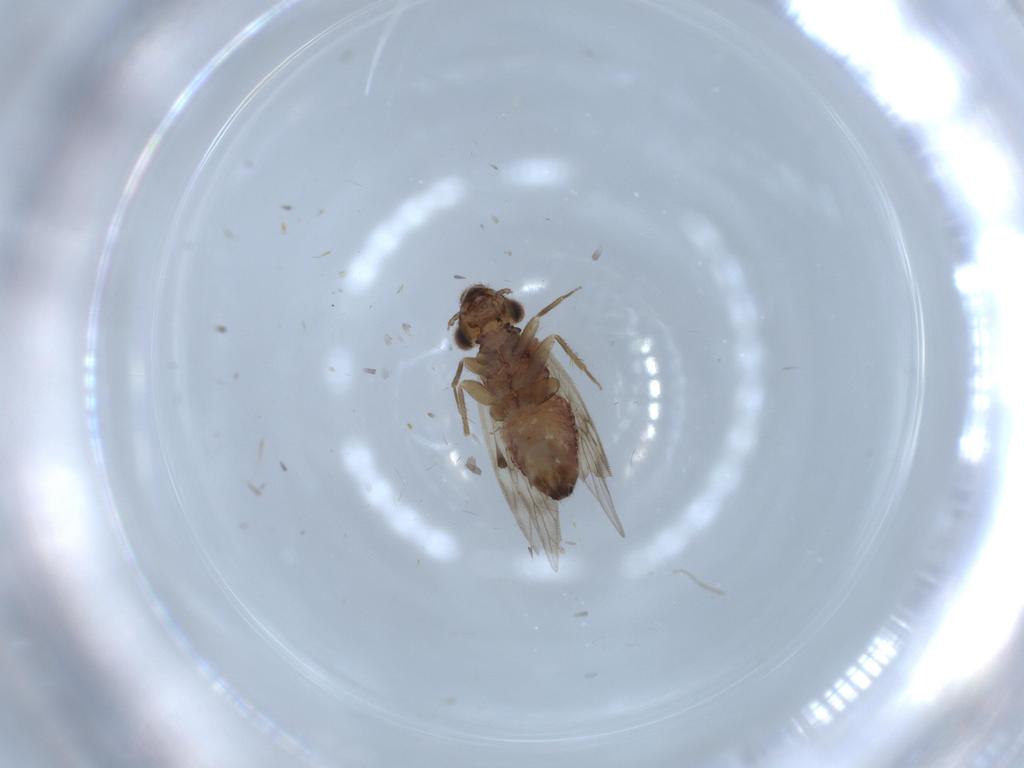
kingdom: Animalia
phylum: Arthropoda
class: Insecta
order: Psocodea
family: Lepidopsocidae
